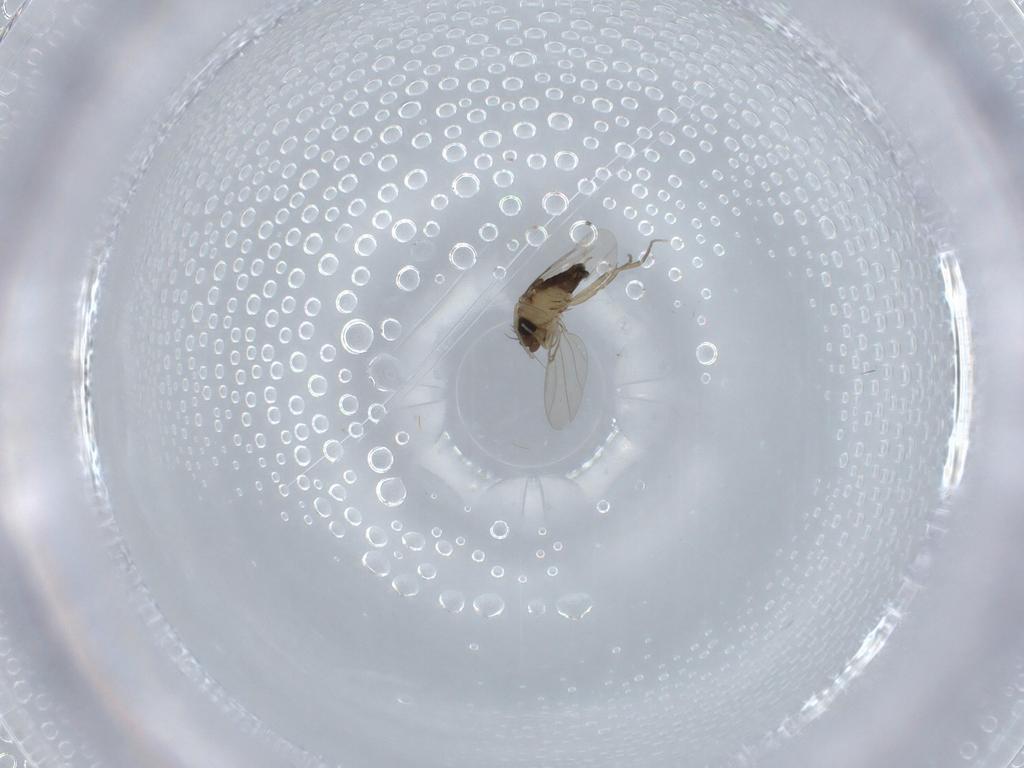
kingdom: Animalia
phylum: Arthropoda
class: Insecta
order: Diptera
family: Phoridae
